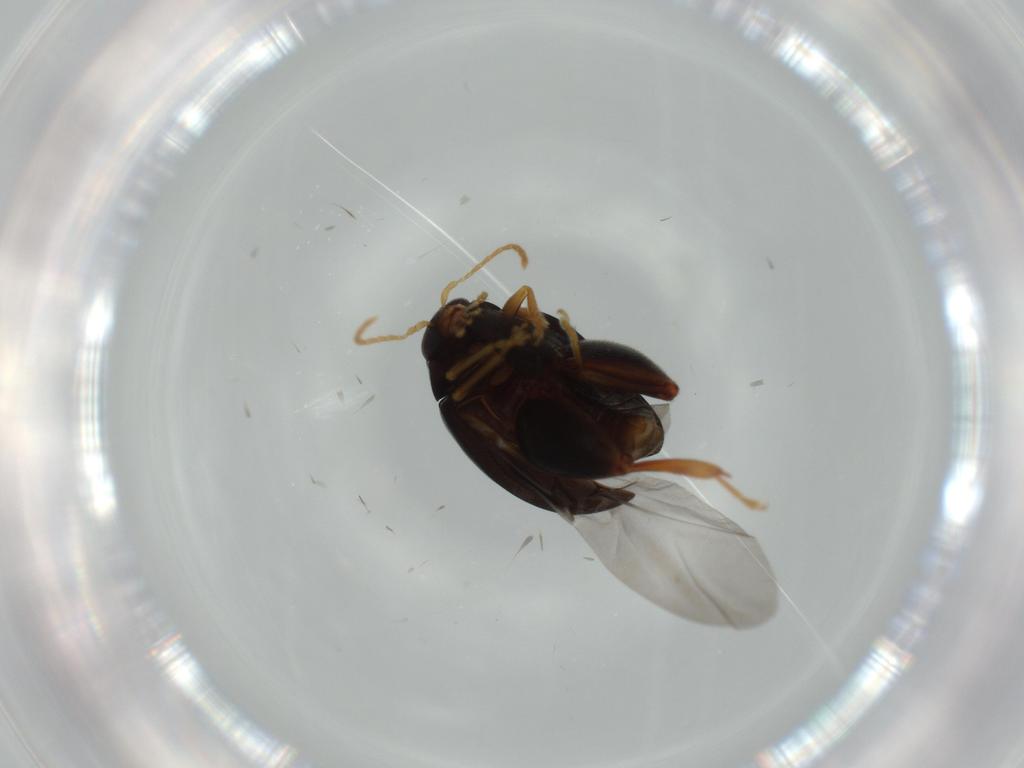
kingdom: Animalia
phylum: Arthropoda
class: Insecta
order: Coleoptera
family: Chrysomelidae
